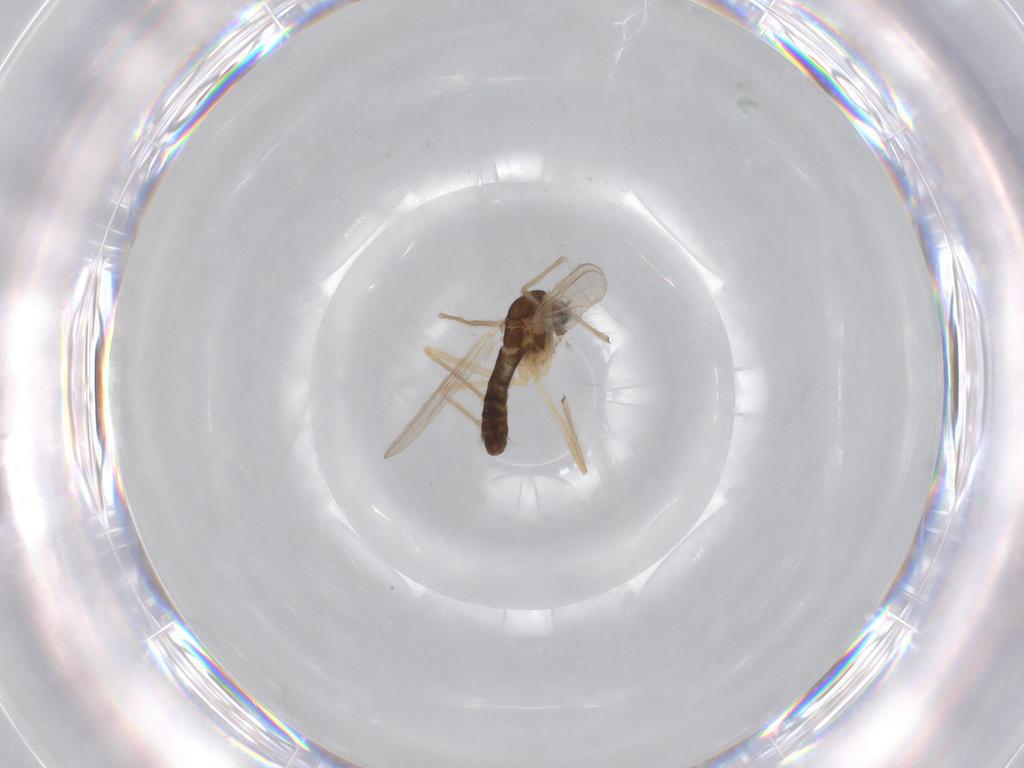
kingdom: Animalia
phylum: Arthropoda
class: Insecta
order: Diptera
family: Chironomidae
